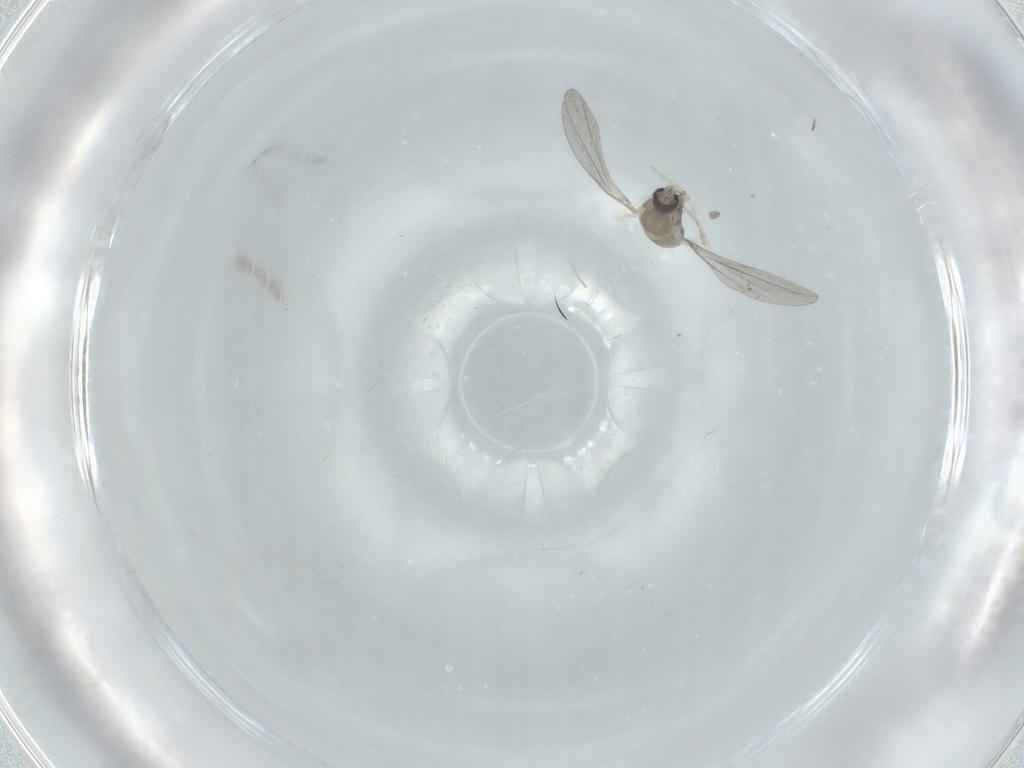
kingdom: Animalia
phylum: Arthropoda
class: Insecta
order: Diptera
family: Cecidomyiidae
